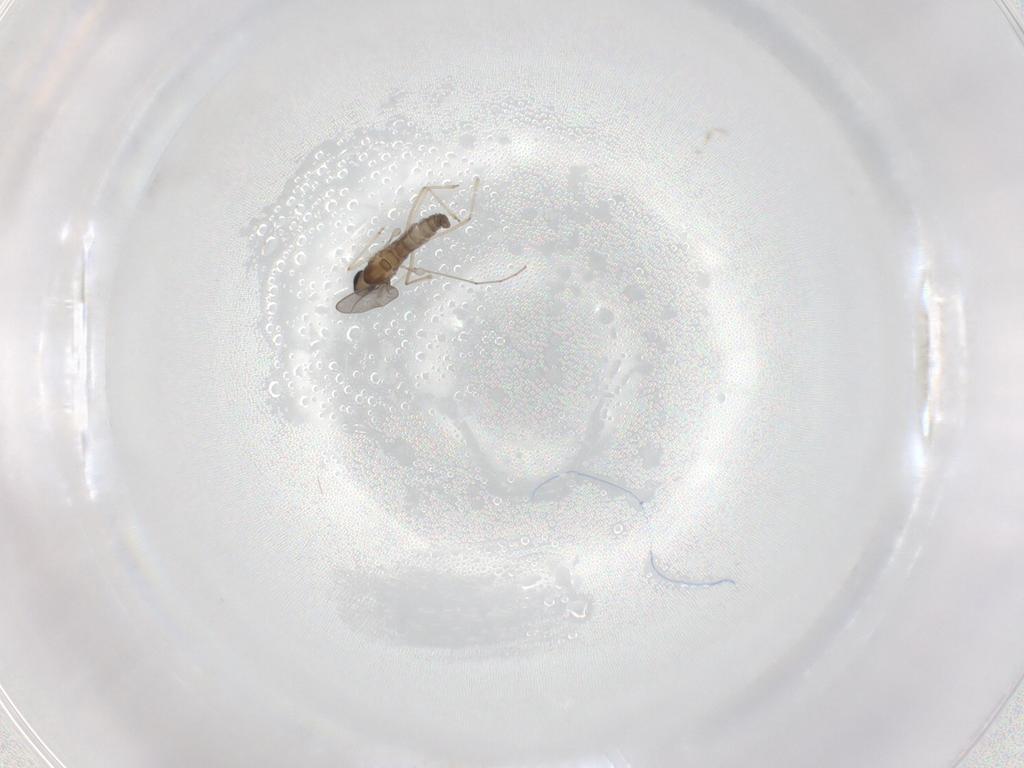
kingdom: Animalia
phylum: Arthropoda
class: Insecta
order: Diptera
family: Cecidomyiidae
